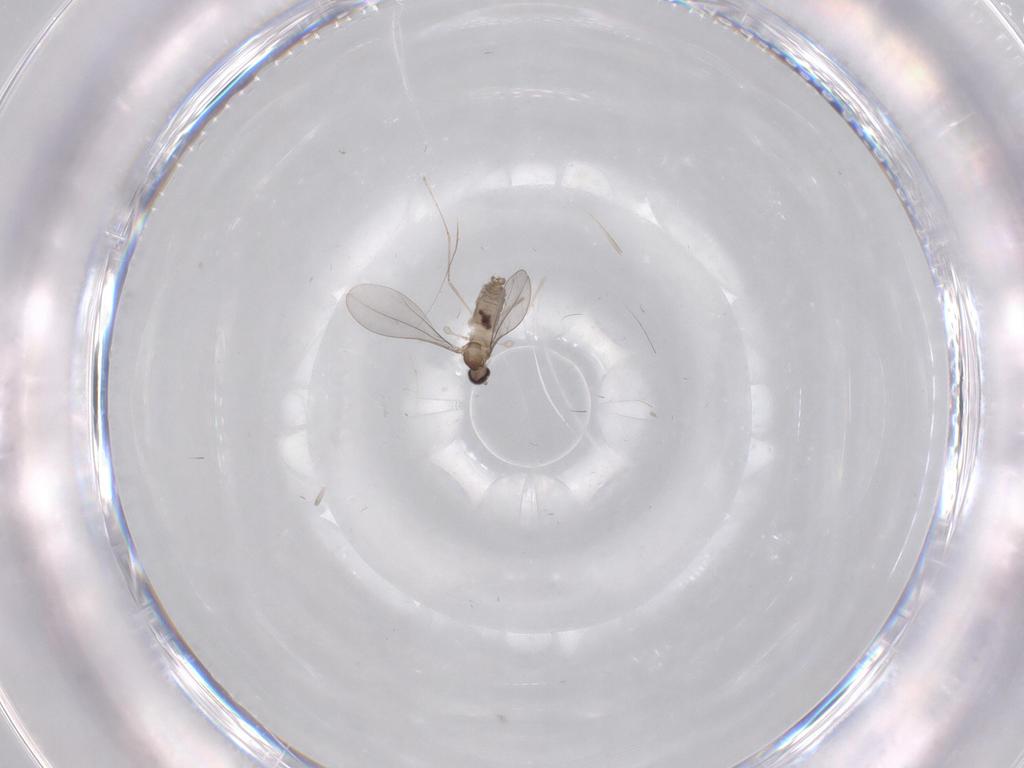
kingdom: Animalia
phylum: Arthropoda
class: Insecta
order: Diptera
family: Cecidomyiidae
